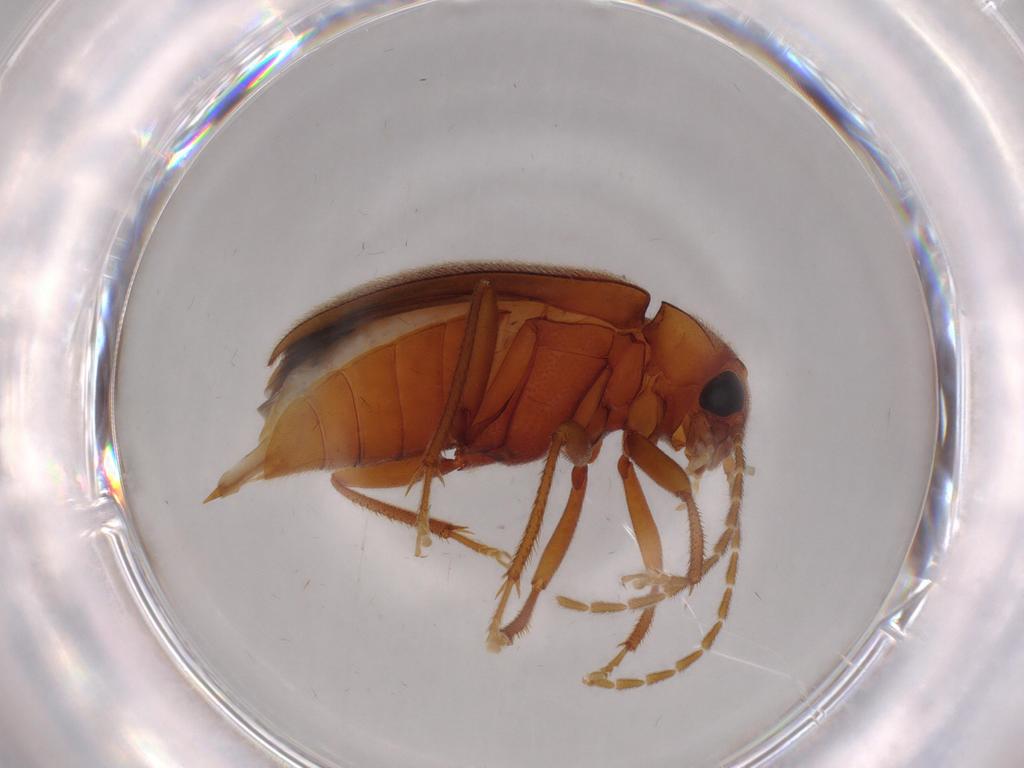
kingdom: Animalia
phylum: Arthropoda
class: Insecta
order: Coleoptera
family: Ptilodactylidae
